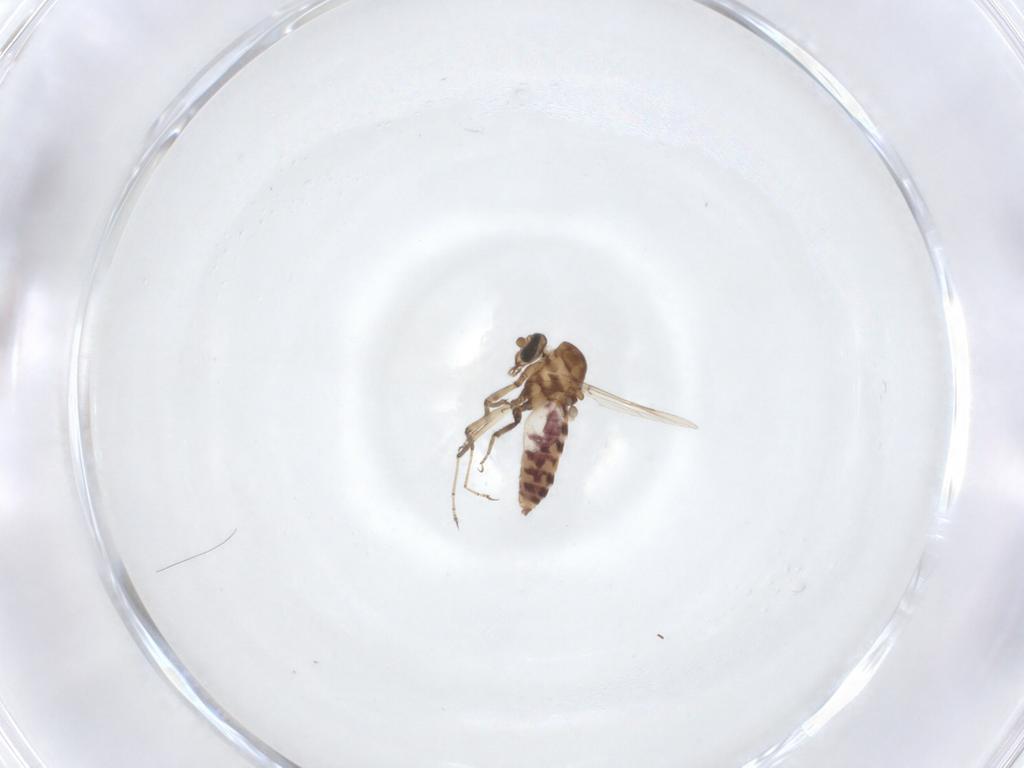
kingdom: Animalia
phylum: Arthropoda
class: Insecta
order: Diptera
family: Ceratopogonidae
